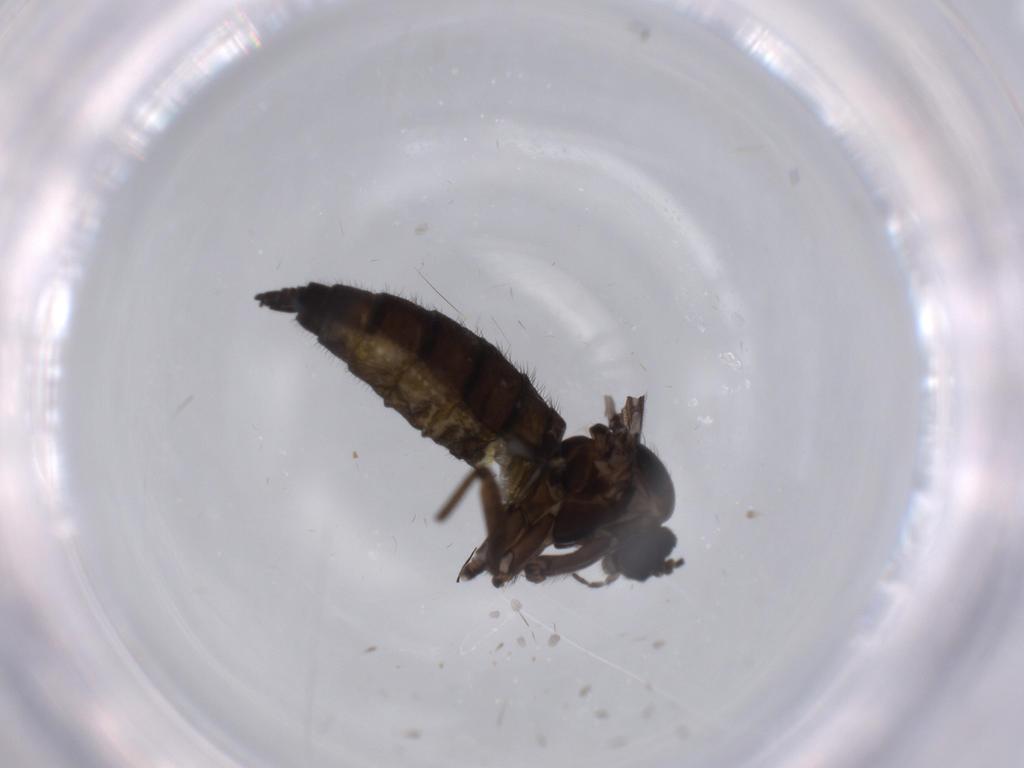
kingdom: Animalia
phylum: Arthropoda
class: Insecta
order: Diptera
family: Sciaridae
